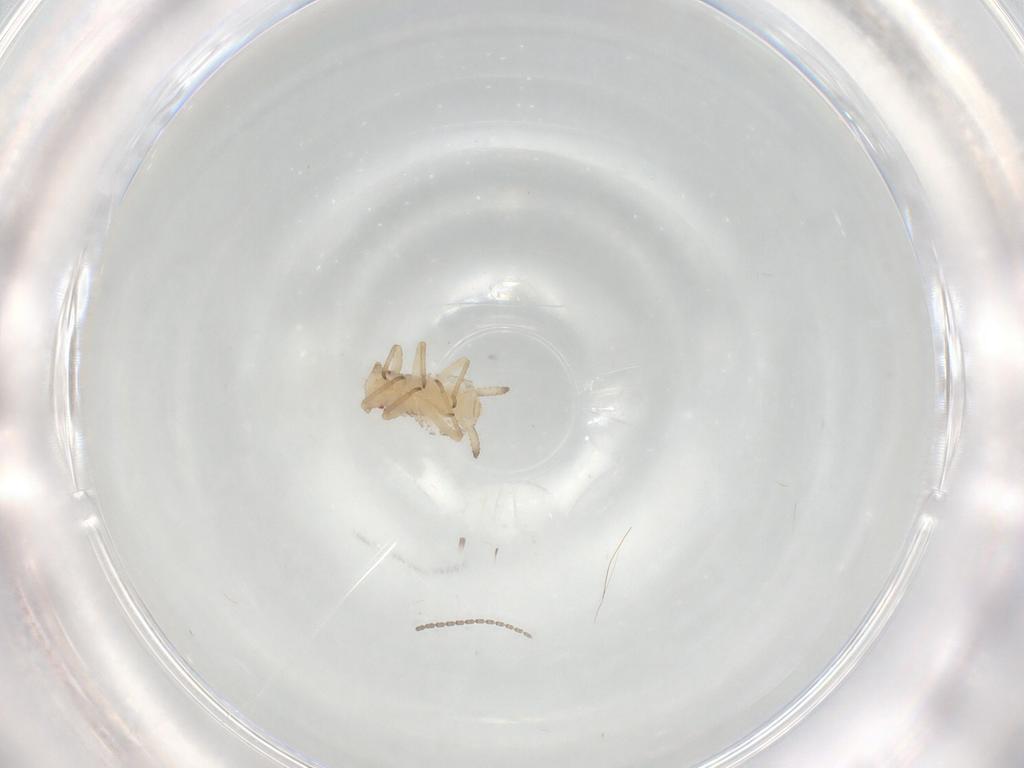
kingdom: Animalia
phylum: Arthropoda
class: Insecta
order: Hemiptera
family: Aphididae
